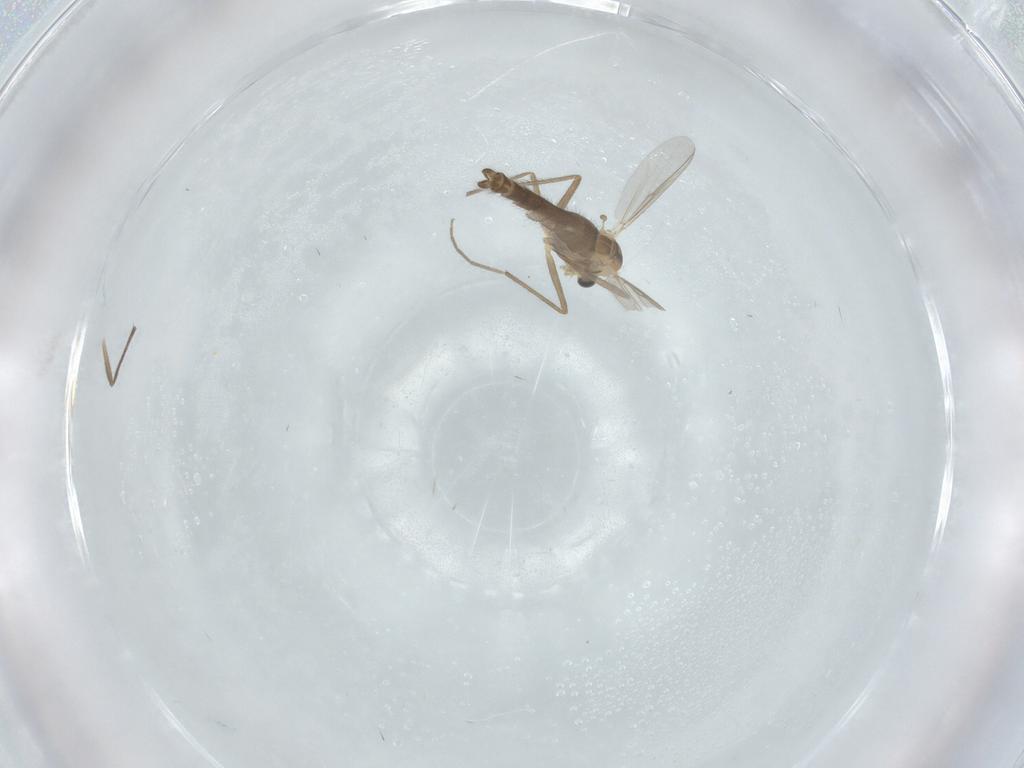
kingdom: Animalia
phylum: Arthropoda
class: Insecta
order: Diptera
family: Chironomidae
